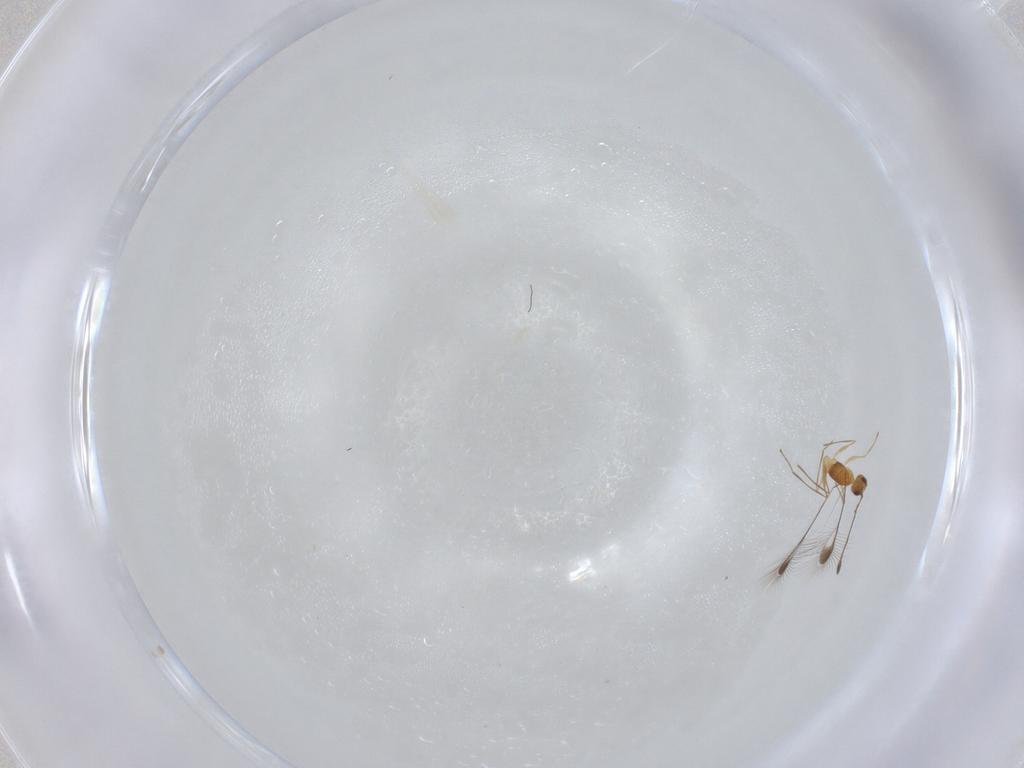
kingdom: Animalia
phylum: Arthropoda
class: Insecta
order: Hymenoptera
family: Mymaridae
